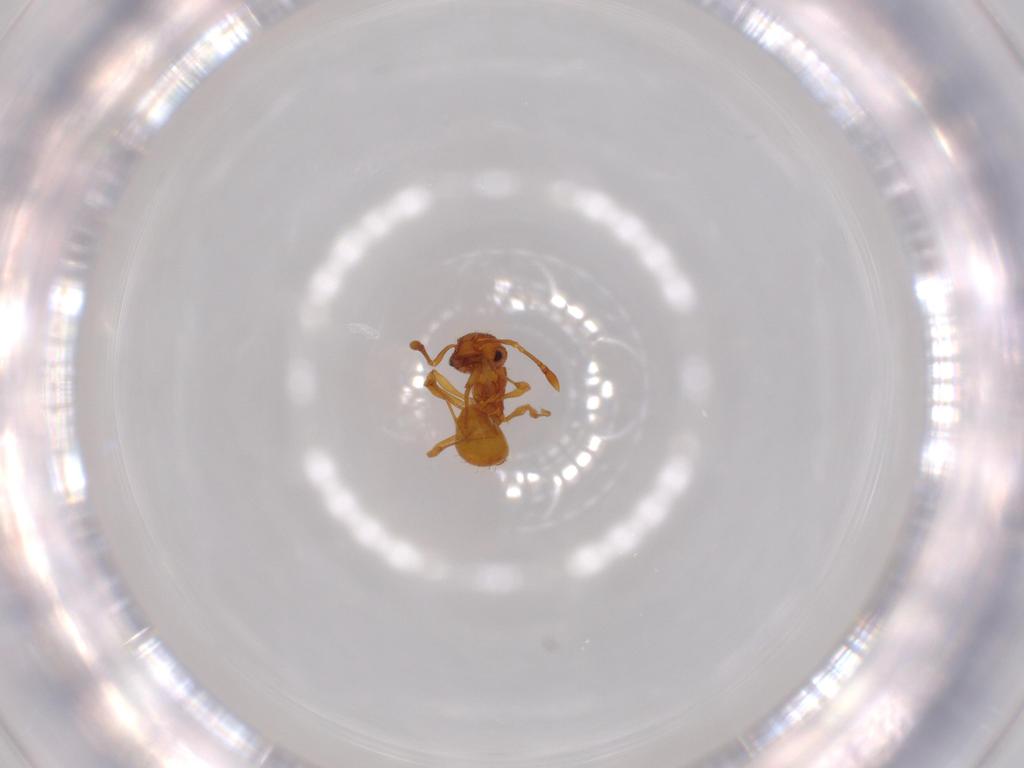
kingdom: Animalia
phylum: Arthropoda
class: Insecta
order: Hymenoptera
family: Formicidae
